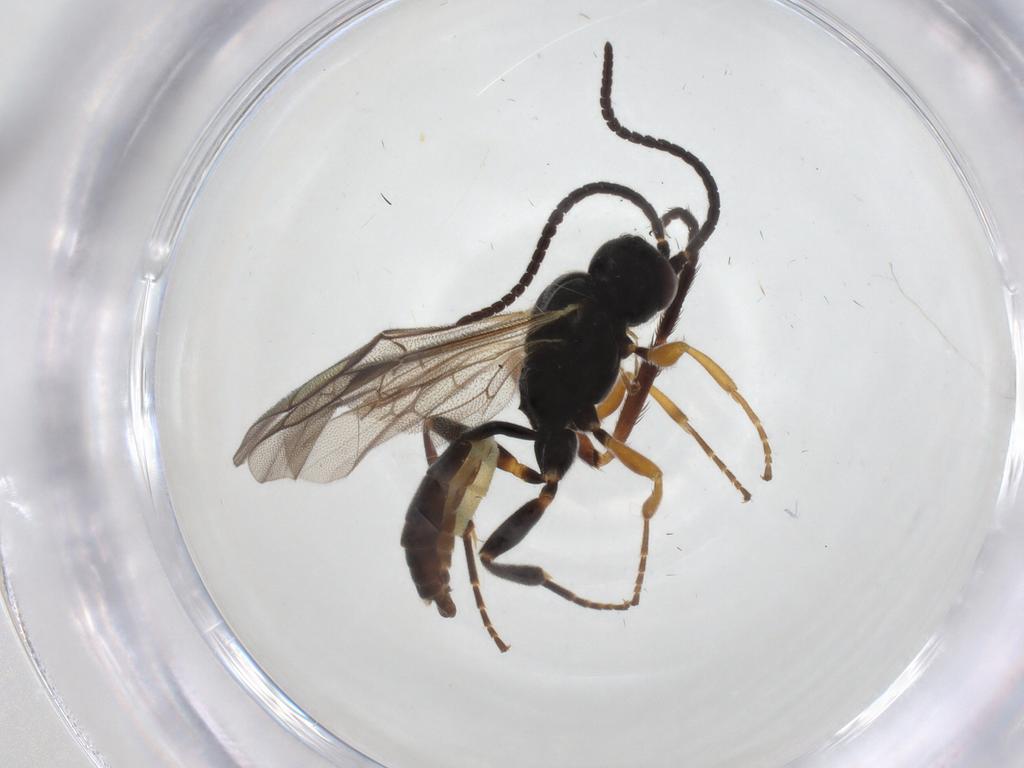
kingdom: Animalia
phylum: Arthropoda
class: Insecta
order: Hymenoptera
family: Ichneumonidae
